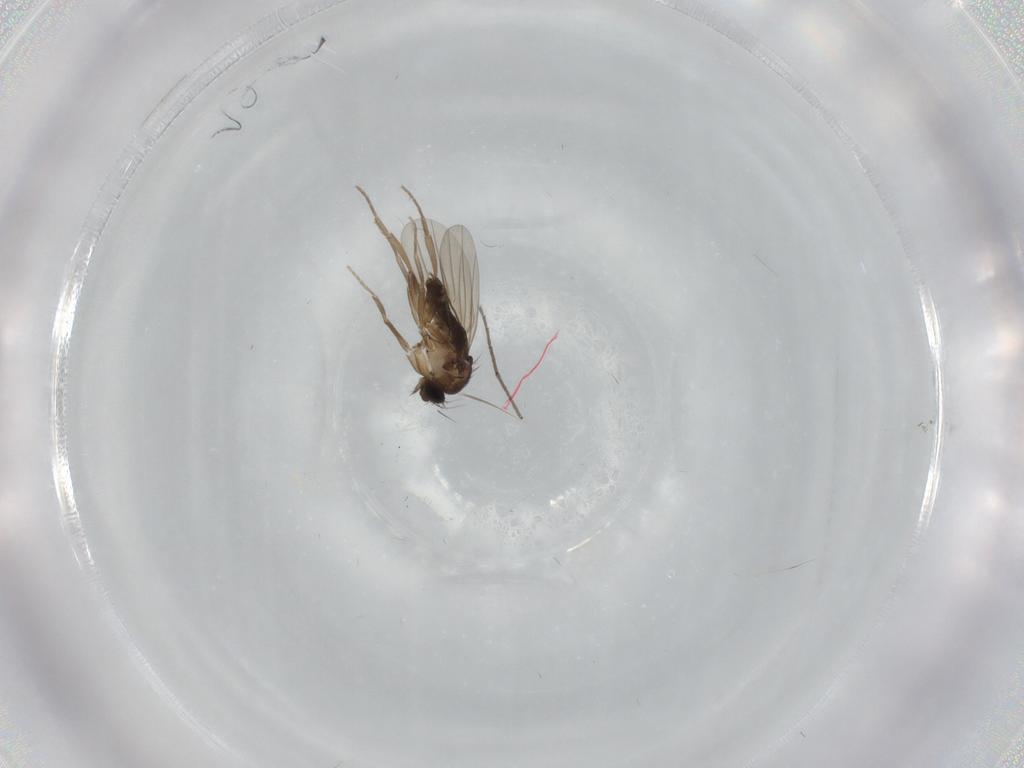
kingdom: Animalia
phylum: Arthropoda
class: Insecta
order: Diptera
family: Phoridae
